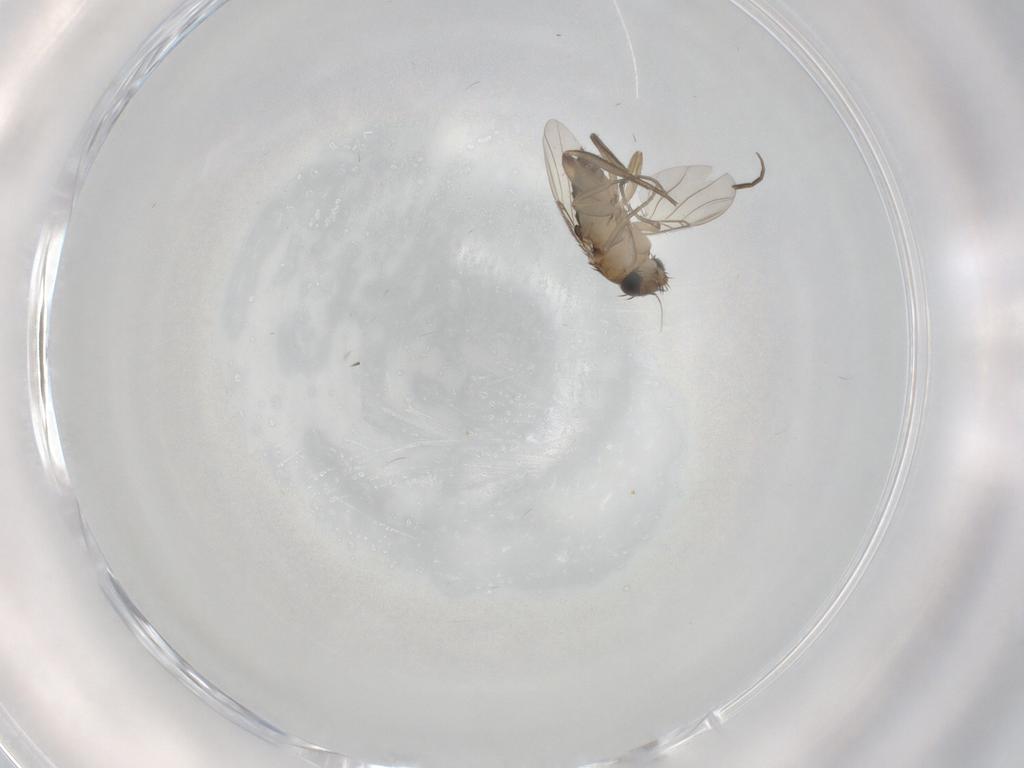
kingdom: Animalia
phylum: Arthropoda
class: Insecta
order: Diptera
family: Phoridae
